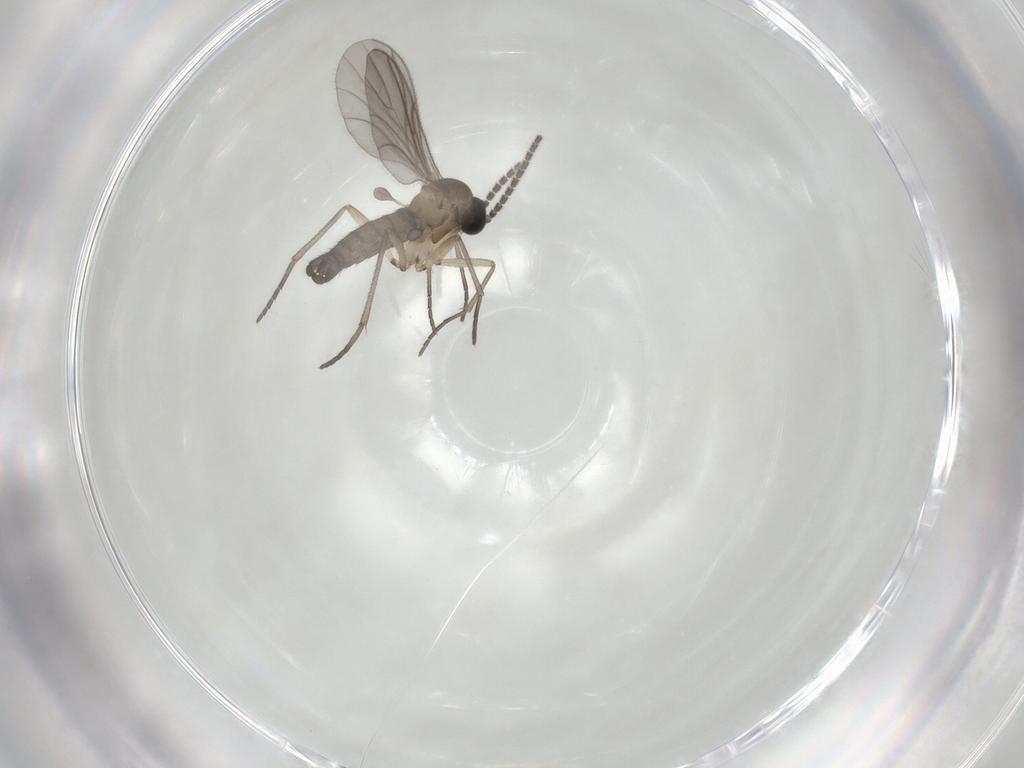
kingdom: Animalia
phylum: Arthropoda
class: Insecta
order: Diptera
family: Sciaridae
